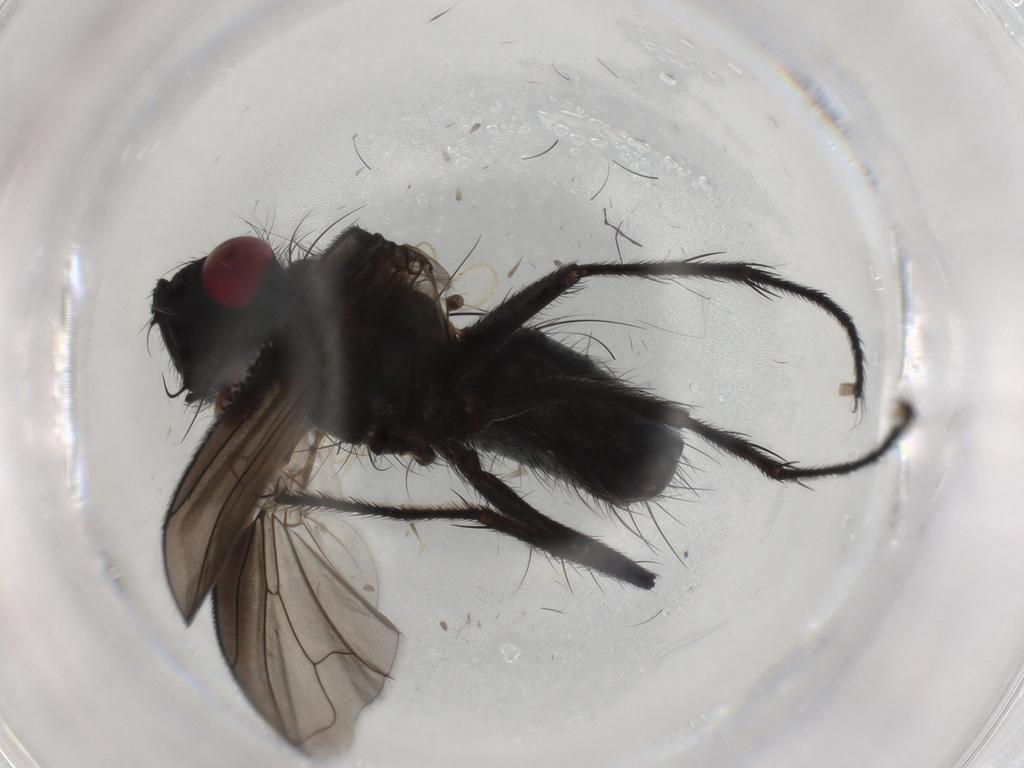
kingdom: Animalia
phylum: Arthropoda
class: Insecta
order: Diptera
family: Tachinidae
